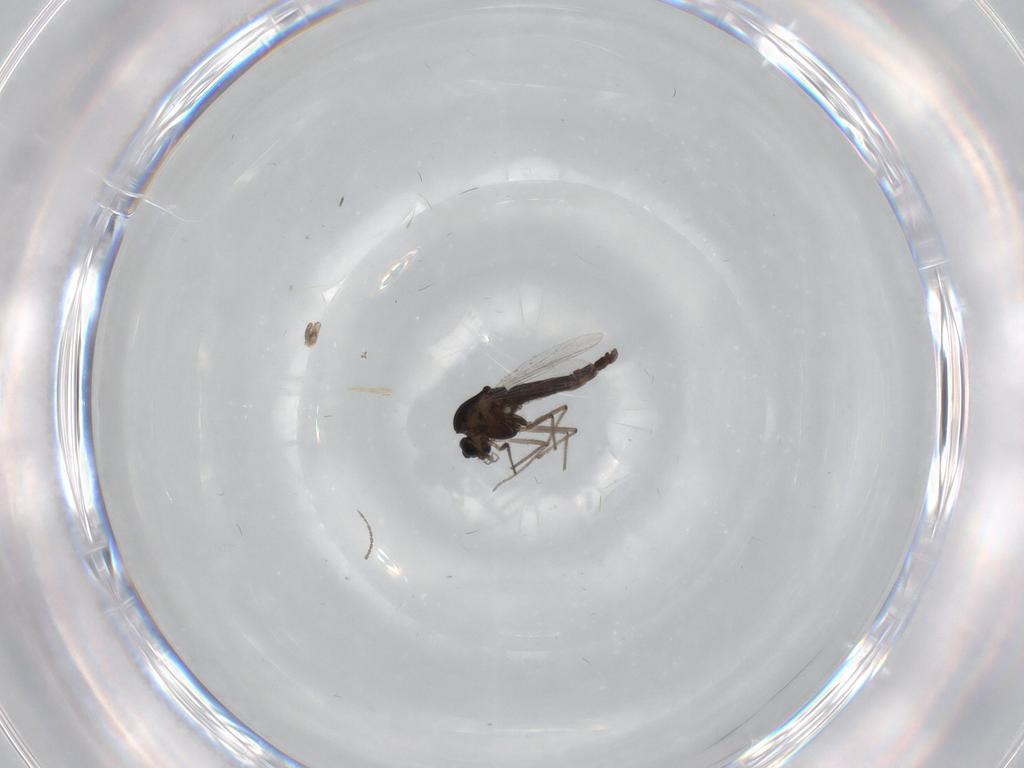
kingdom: Animalia
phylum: Arthropoda
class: Insecta
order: Diptera
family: Cecidomyiidae
